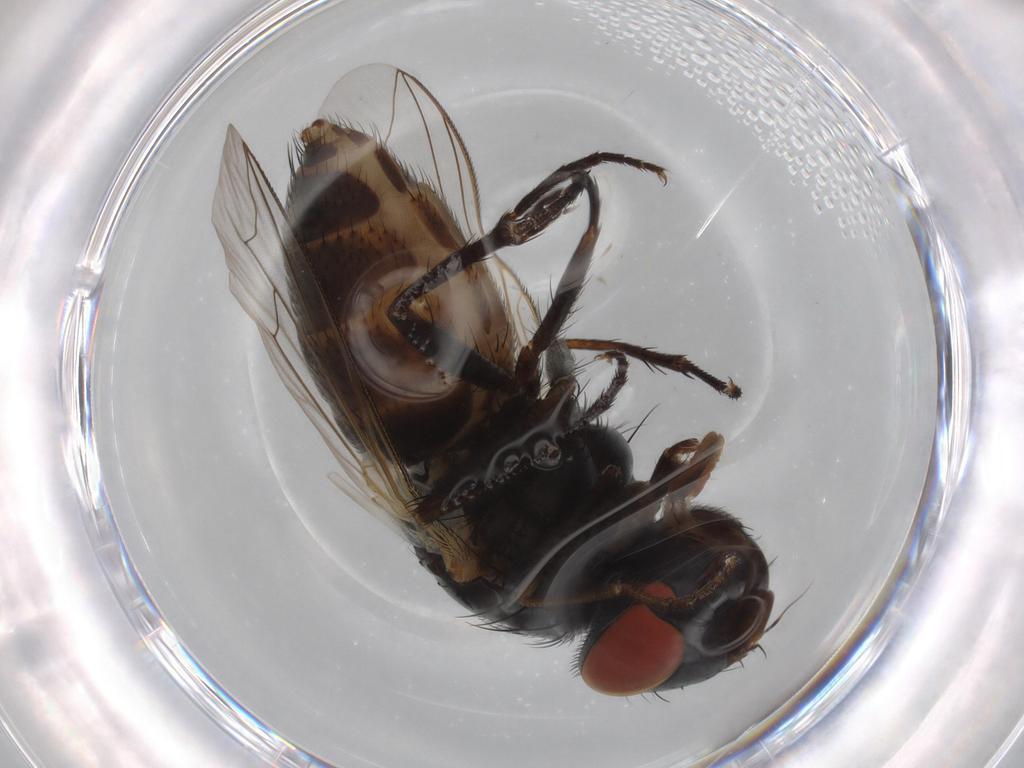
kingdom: Animalia
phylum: Arthropoda
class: Insecta
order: Diptera
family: Sarcophagidae
